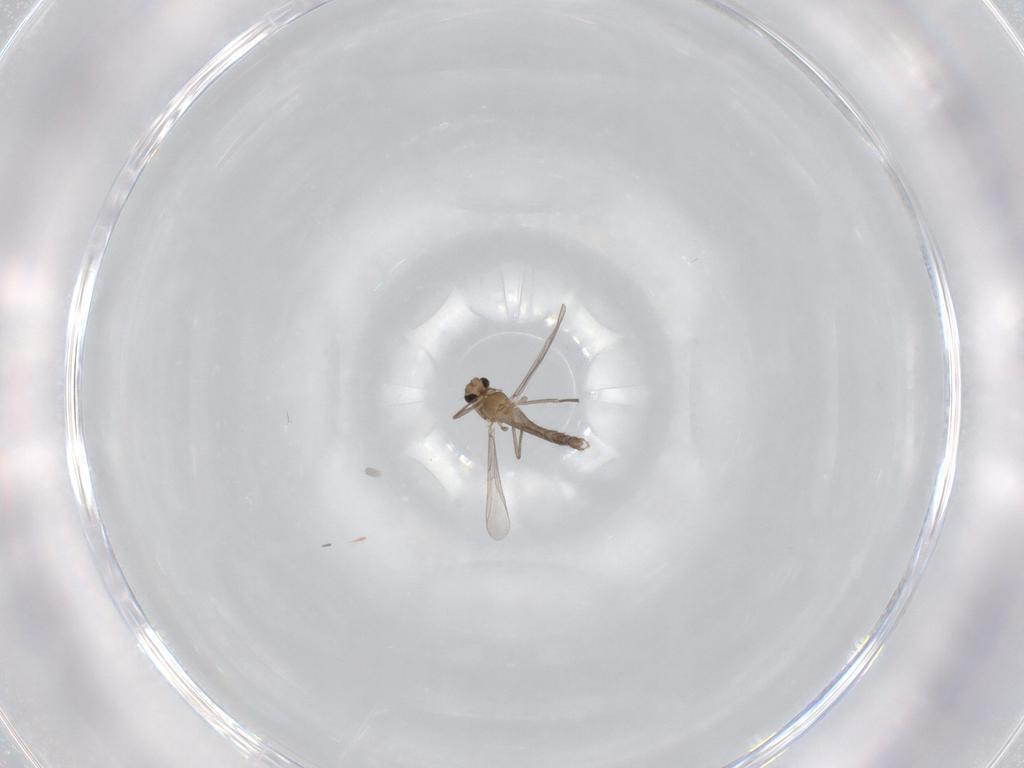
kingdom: Animalia
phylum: Arthropoda
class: Insecta
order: Diptera
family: Chironomidae
